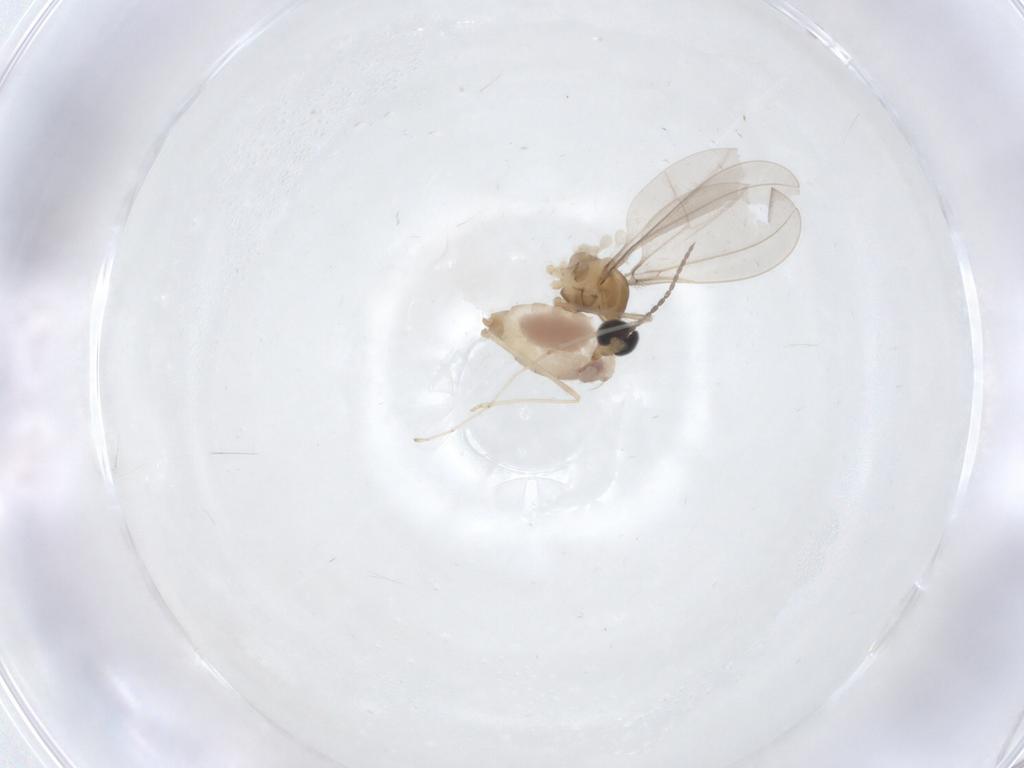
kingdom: Animalia
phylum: Arthropoda
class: Insecta
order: Diptera
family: Cecidomyiidae
